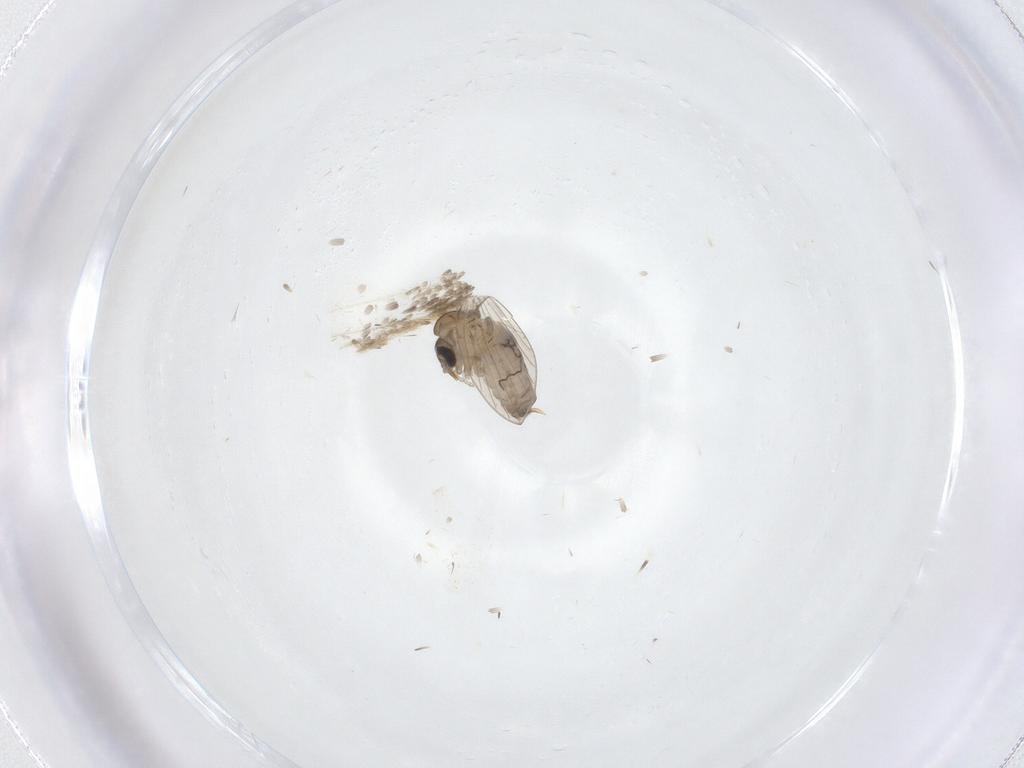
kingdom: Animalia
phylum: Arthropoda
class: Insecta
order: Diptera
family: Psychodidae
